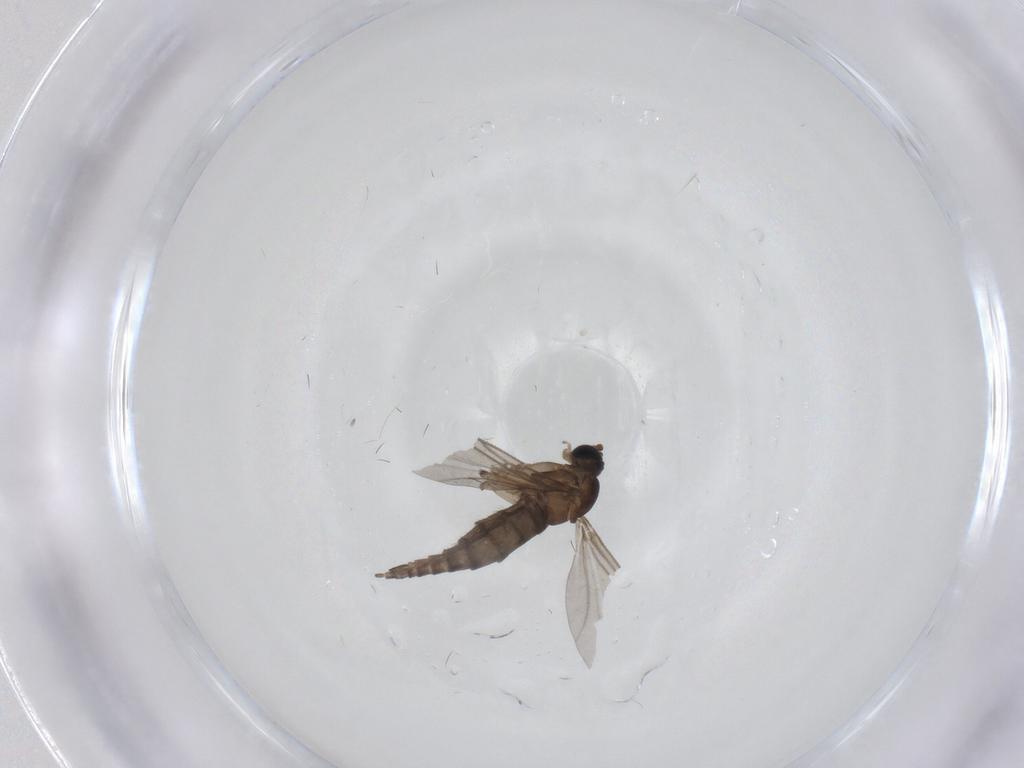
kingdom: Animalia
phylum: Arthropoda
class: Insecta
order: Diptera
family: Sciaridae
